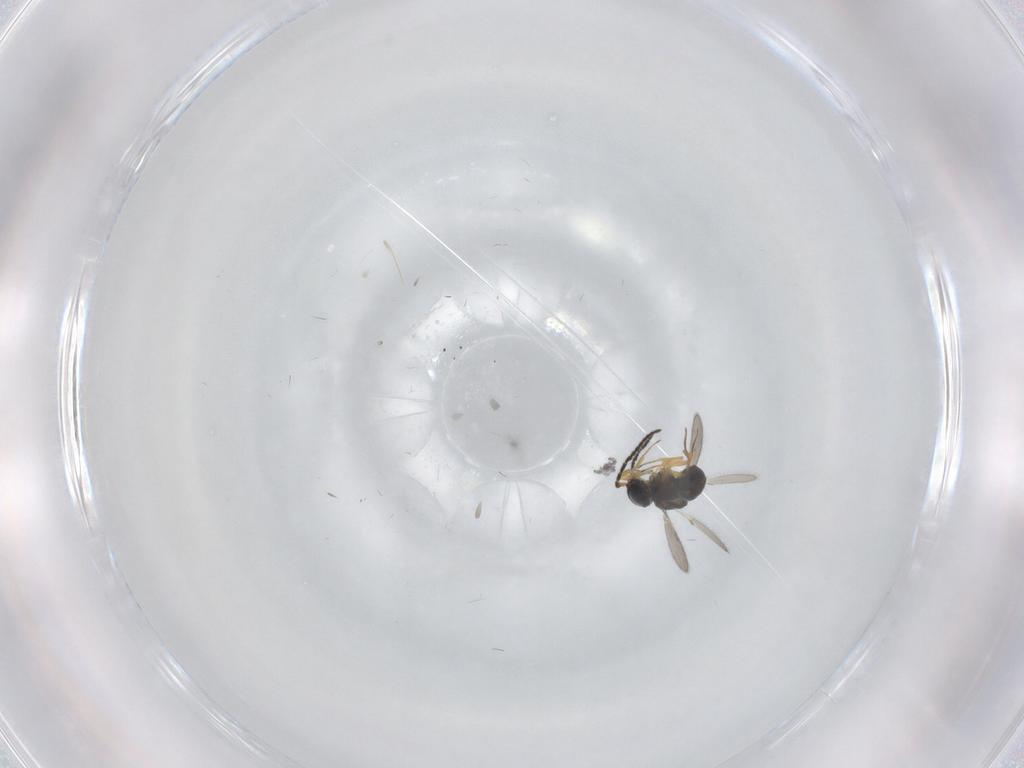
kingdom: Animalia
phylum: Arthropoda
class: Insecta
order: Hymenoptera
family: Scelionidae
